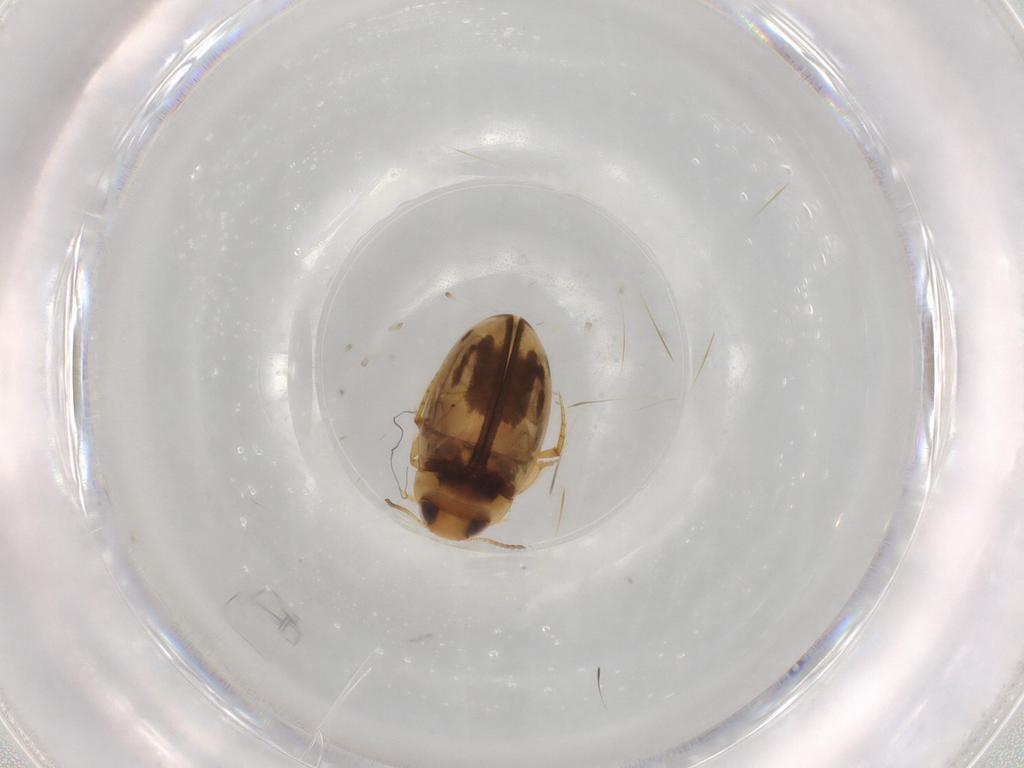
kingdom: Animalia
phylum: Arthropoda
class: Insecta
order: Coleoptera
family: Dytiscidae
